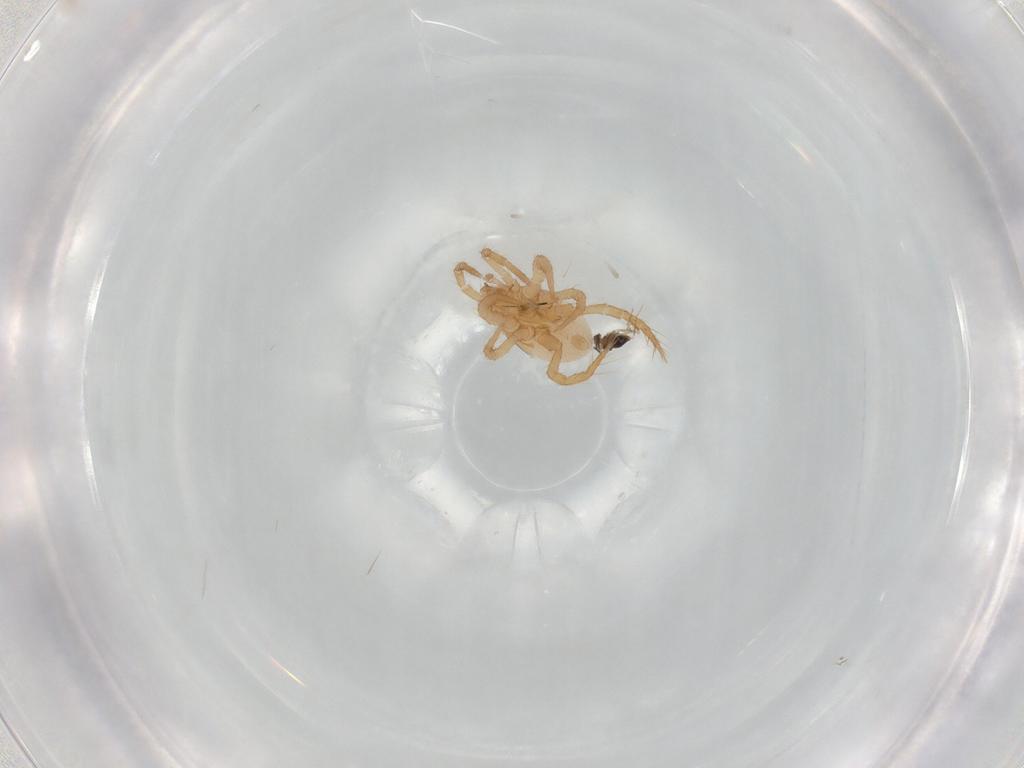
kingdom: Animalia
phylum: Arthropoda
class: Insecta
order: Hymenoptera
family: Mymaridae
